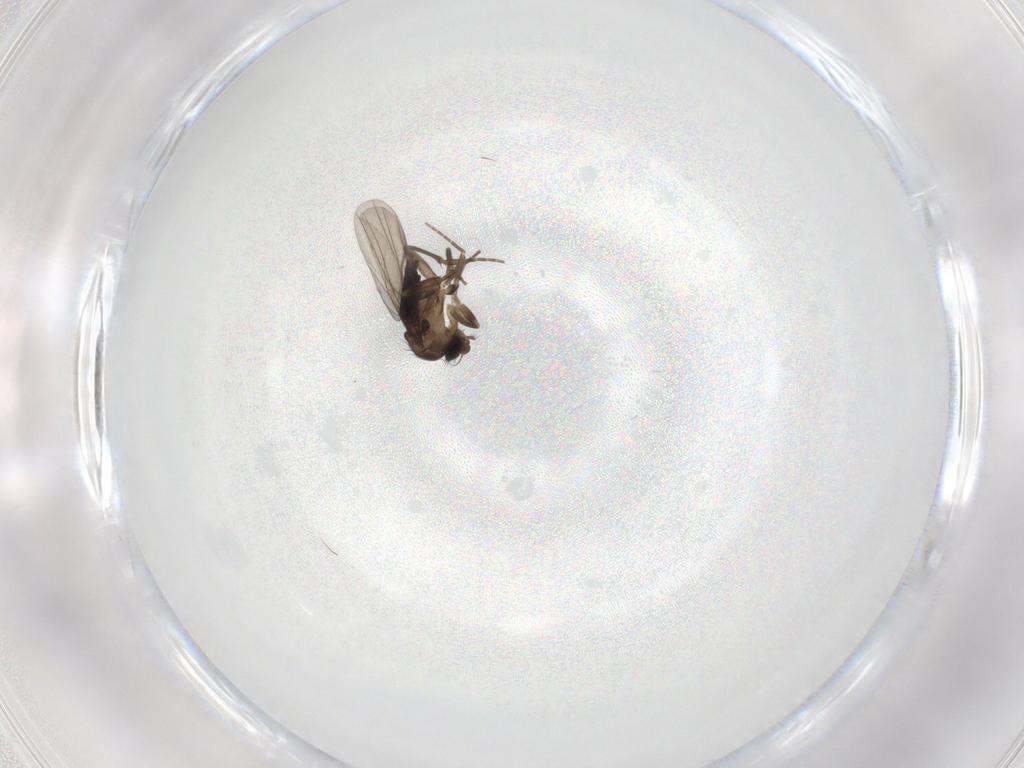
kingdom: Animalia
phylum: Arthropoda
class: Insecta
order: Diptera
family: Phoridae
